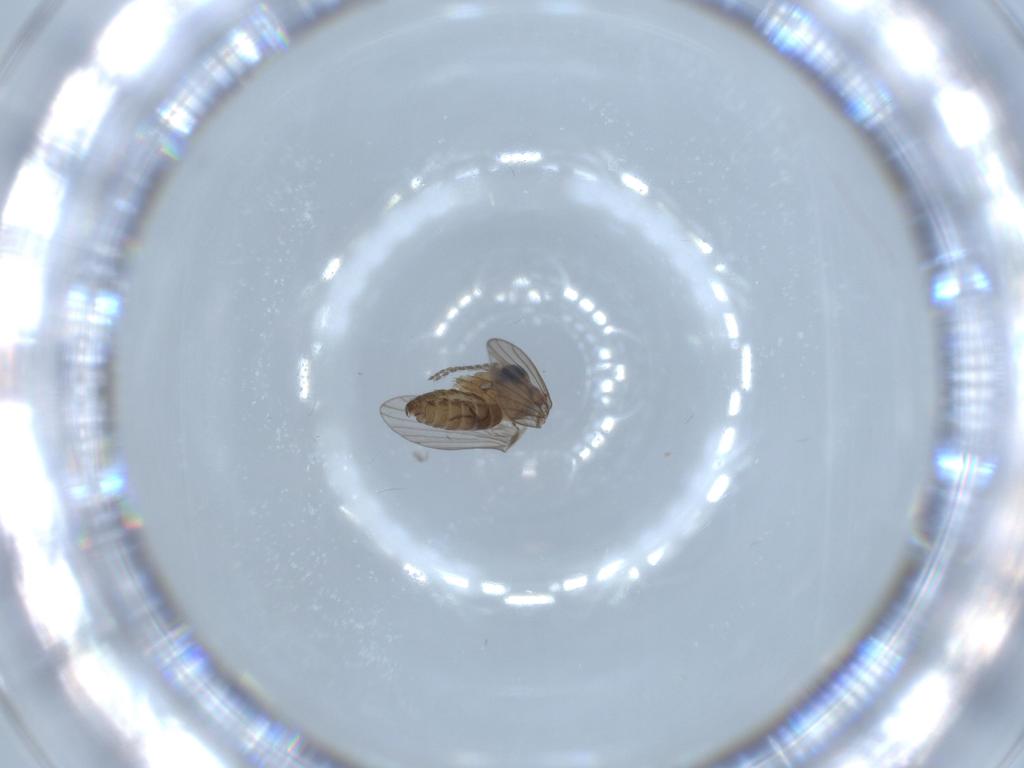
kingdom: Animalia
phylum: Arthropoda
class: Insecta
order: Diptera
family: Psychodidae
